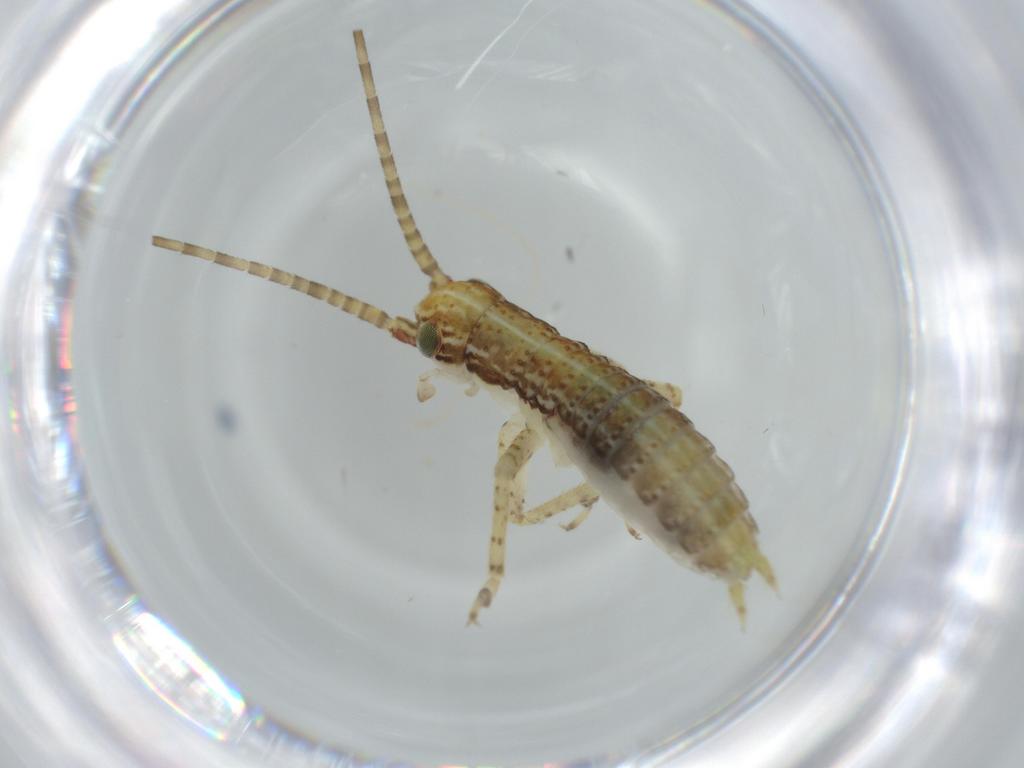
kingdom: Animalia
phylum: Arthropoda
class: Insecta
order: Orthoptera
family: Gryllidae
